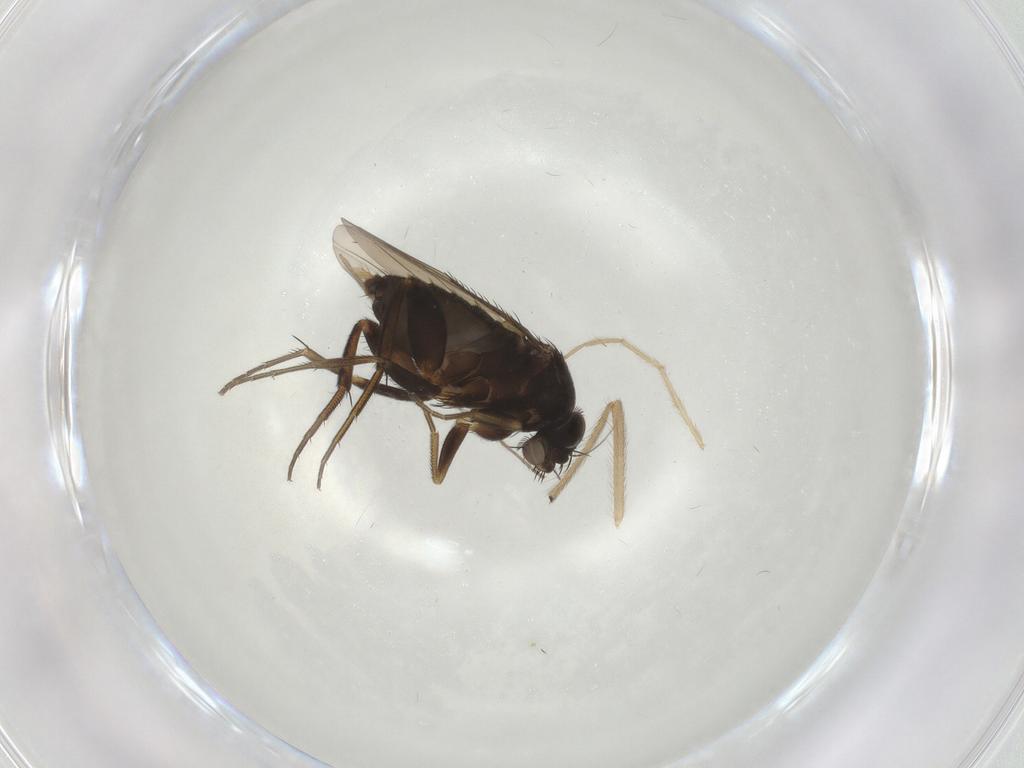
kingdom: Animalia
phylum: Arthropoda
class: Insecta
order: Diptera
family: Phoridae
